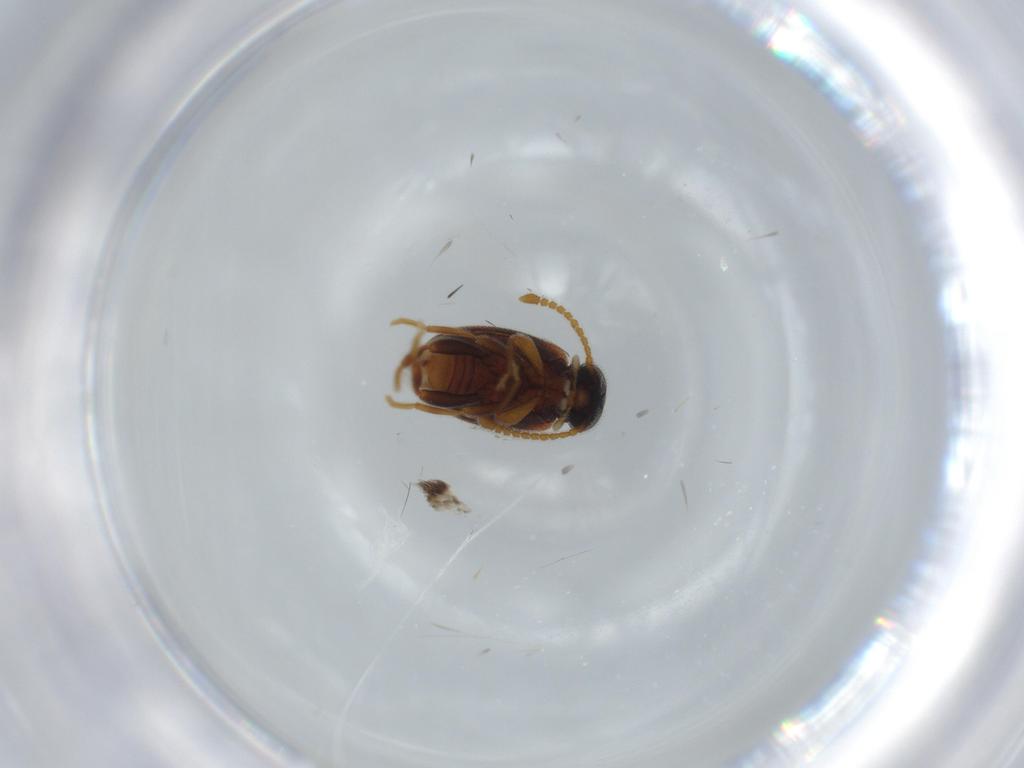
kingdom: Animalia
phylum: Arthropoda
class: Insecta
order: Coleoptera
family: Aderidae
